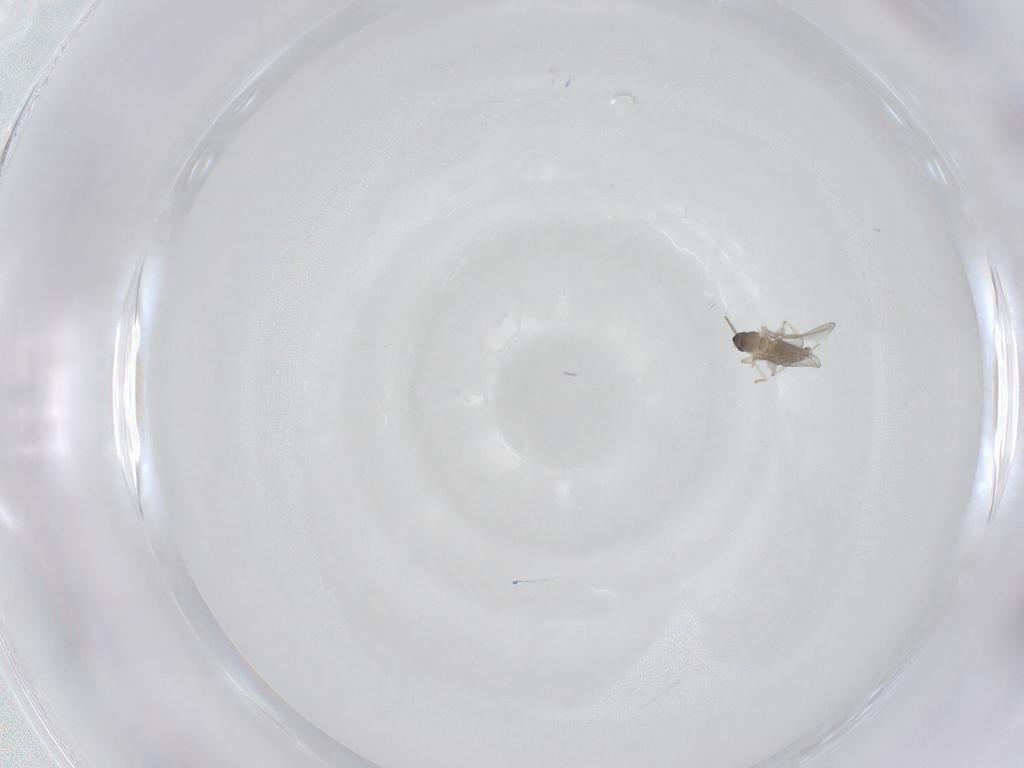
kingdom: Animalia
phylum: Arthropoda
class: Insecta
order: Diptera
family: Cecidomyiidae
